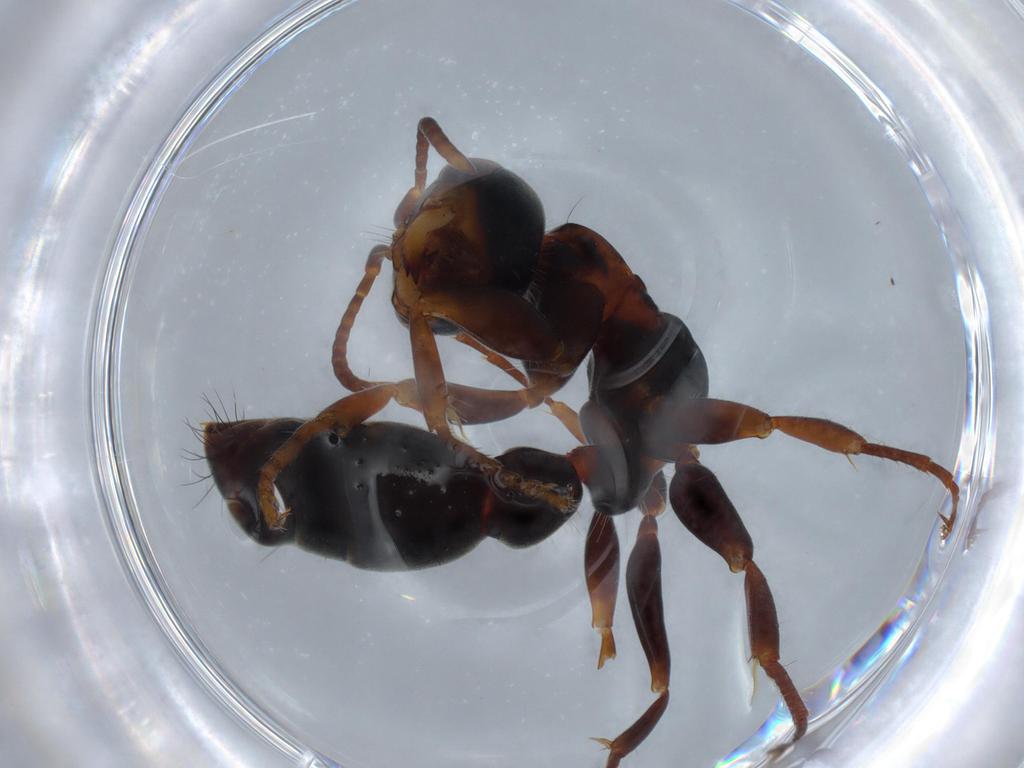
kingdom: Animalia
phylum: Arthropoda
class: Insecta
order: Hymenoptera
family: Formicidae
